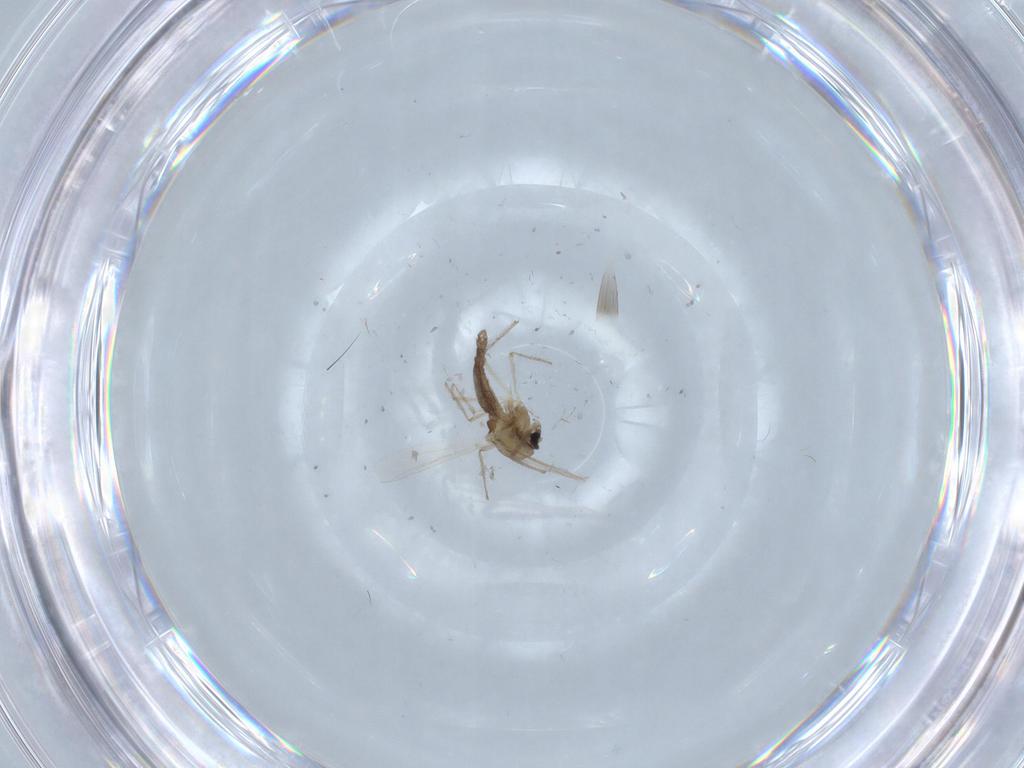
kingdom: Animalia
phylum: Arthropoda
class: Insecta
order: Diptera
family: Chironomidae
